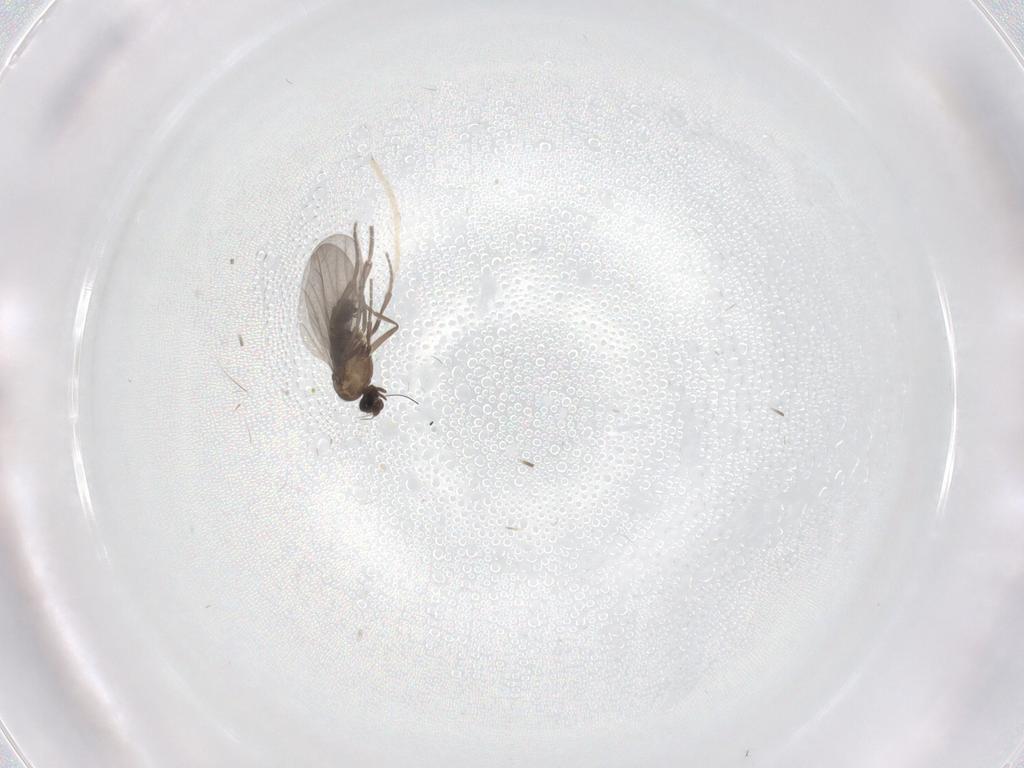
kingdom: Animalia
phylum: Arthropoda
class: Insecta
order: Diptera
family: Phoridae
